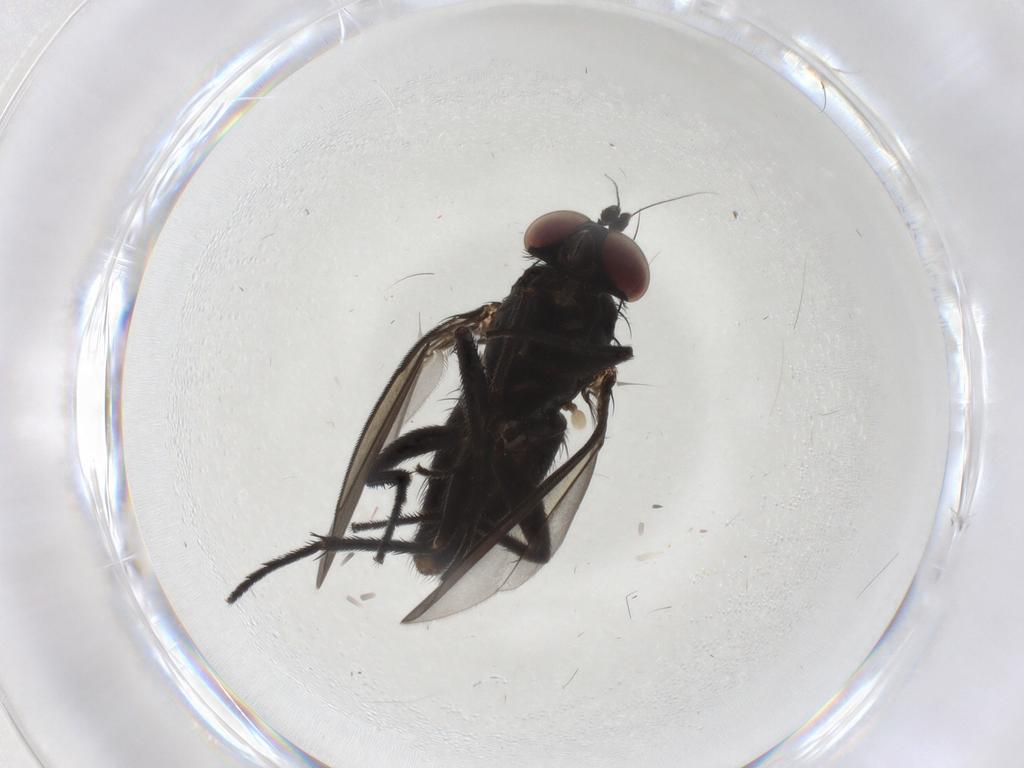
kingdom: Animalia
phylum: Arthropoda
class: Insecta
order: Diptera
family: Dolichopodidae
